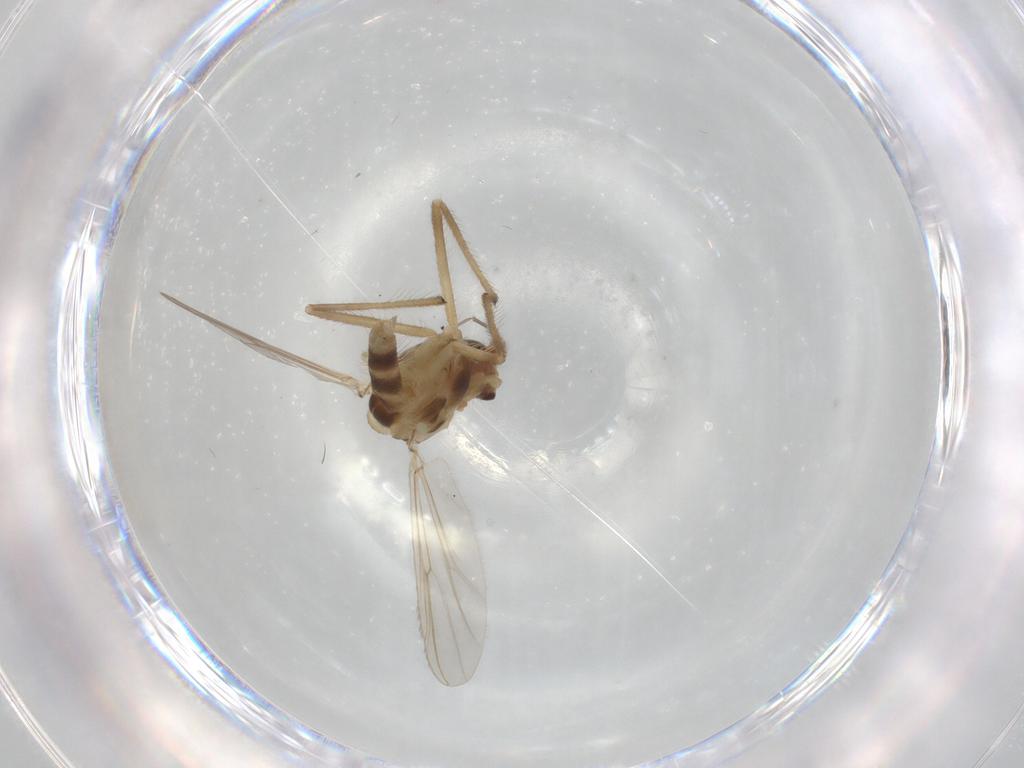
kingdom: Animalia
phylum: Arthropoda
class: Insecta
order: Diptera
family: Chironomidae
